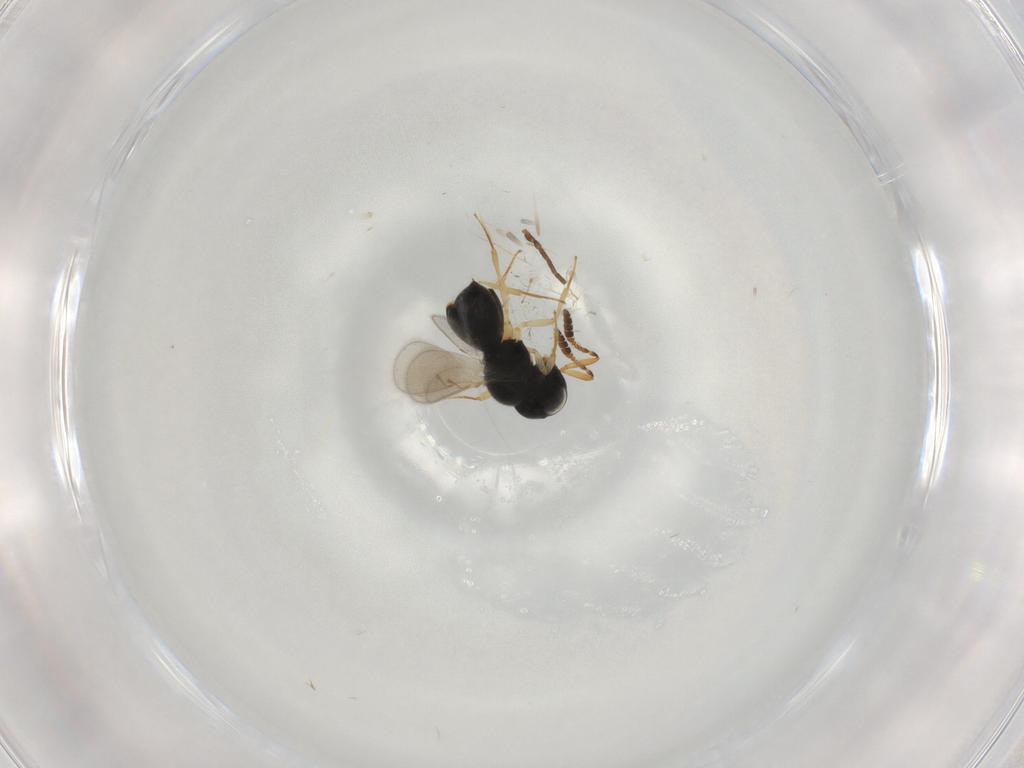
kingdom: Animalia
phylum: Arthropoda
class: Insecta
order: Hymenoptera
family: Scelionidae
